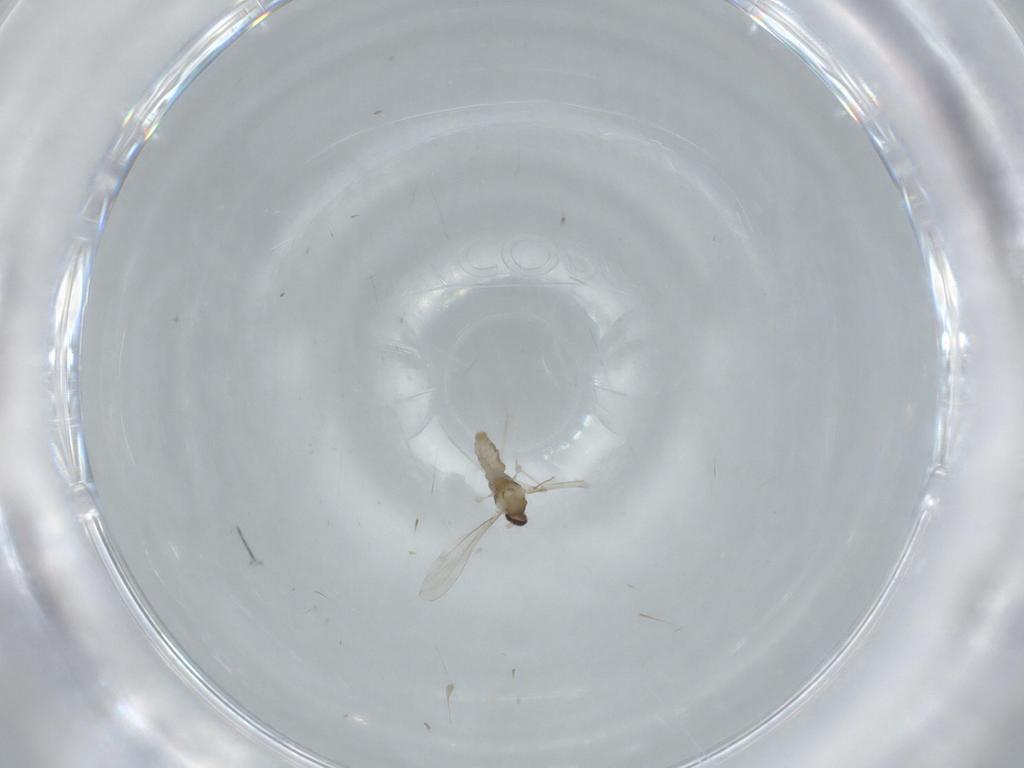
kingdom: Animalia
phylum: Arthropoda
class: Insecta
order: Diptera
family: Cecidomyiidae
